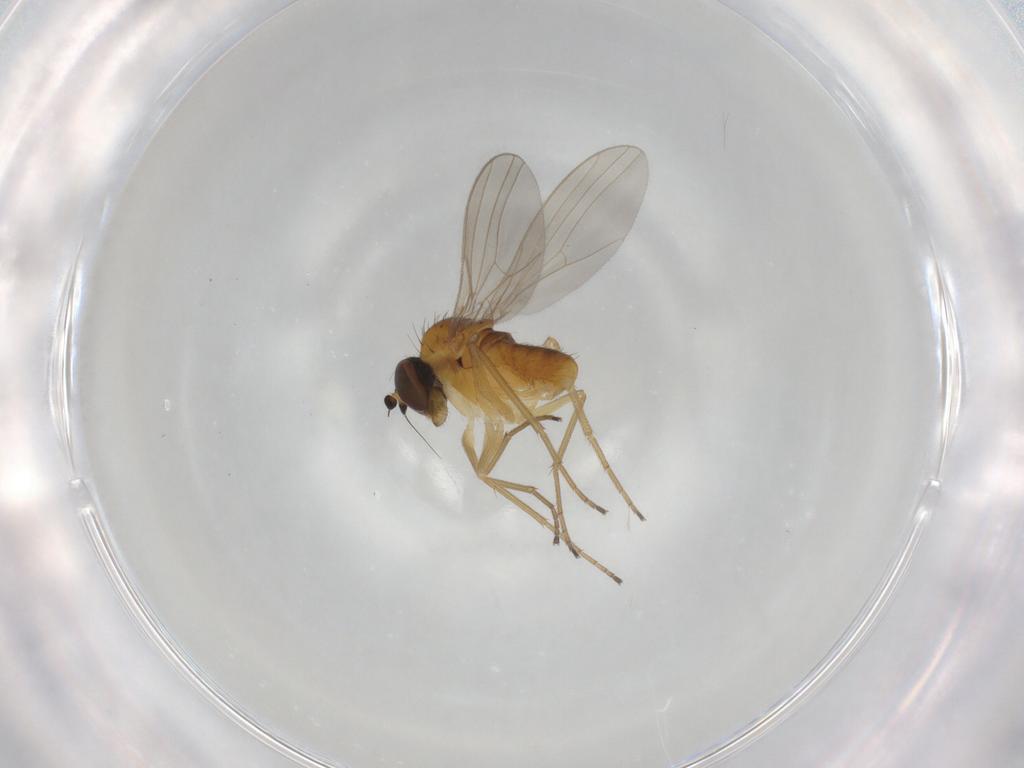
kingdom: Animalia
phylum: Arthropoda
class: Insecta
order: Diptera
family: Dolichopodidae
